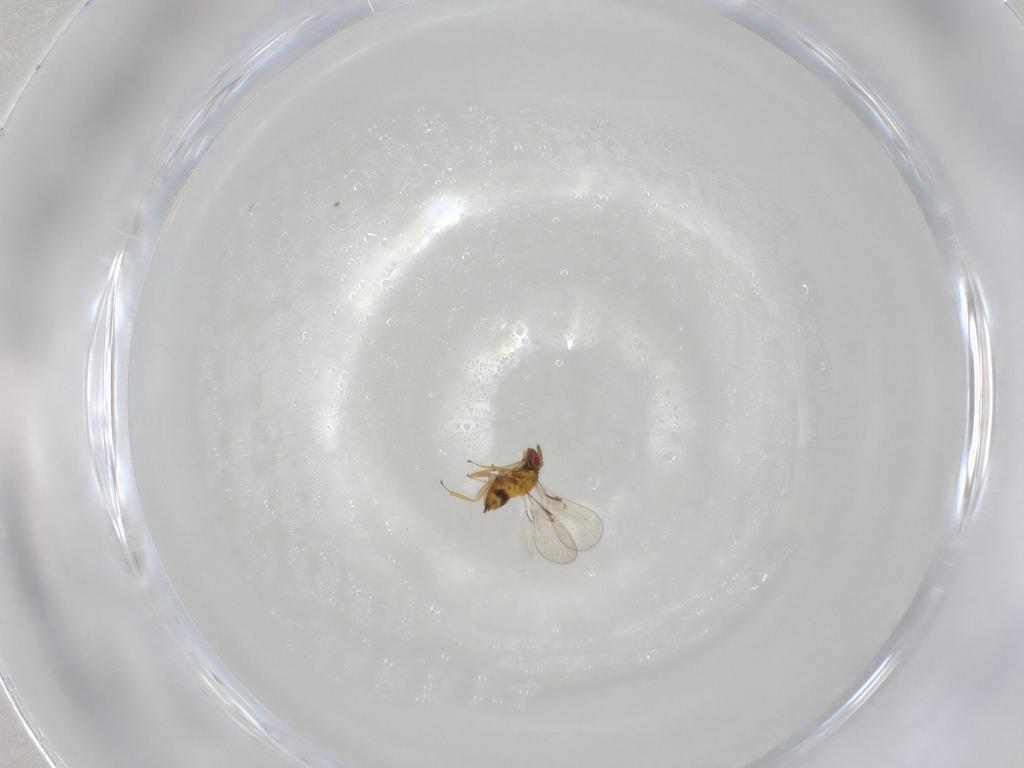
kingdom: Animalia
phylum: Arthropoda
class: Insecta
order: Hymenoptera
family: Trichogrammatidae
